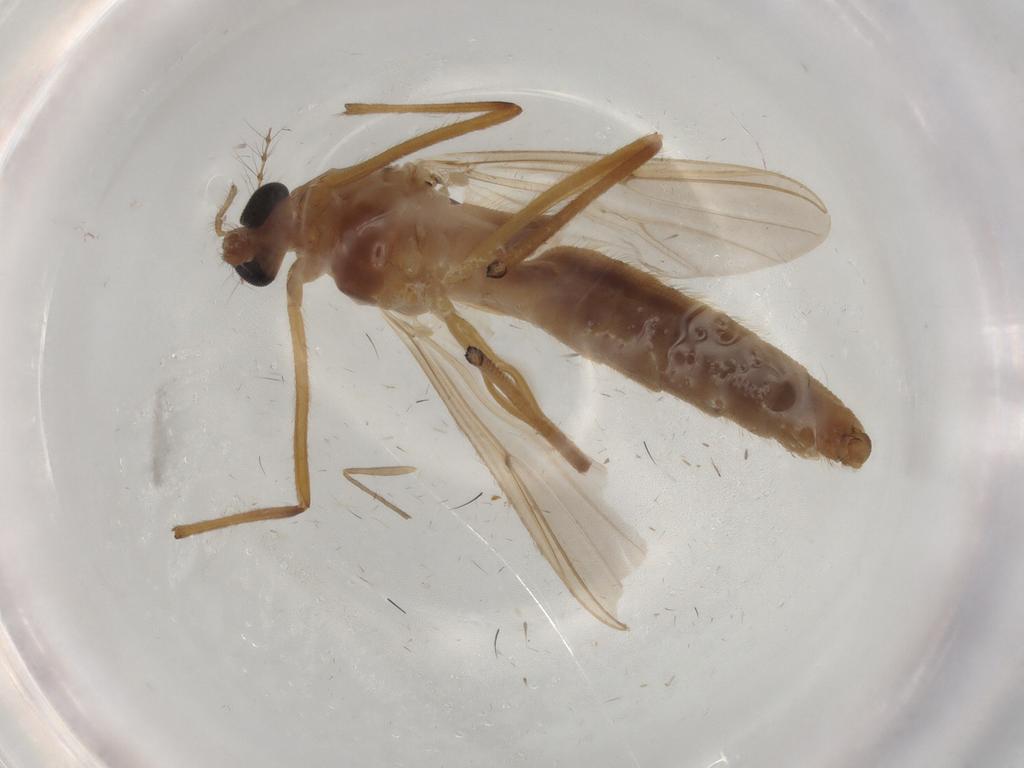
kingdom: Animalia
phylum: Arthropoda
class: Insecta
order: Diptera
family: Chironomidae
